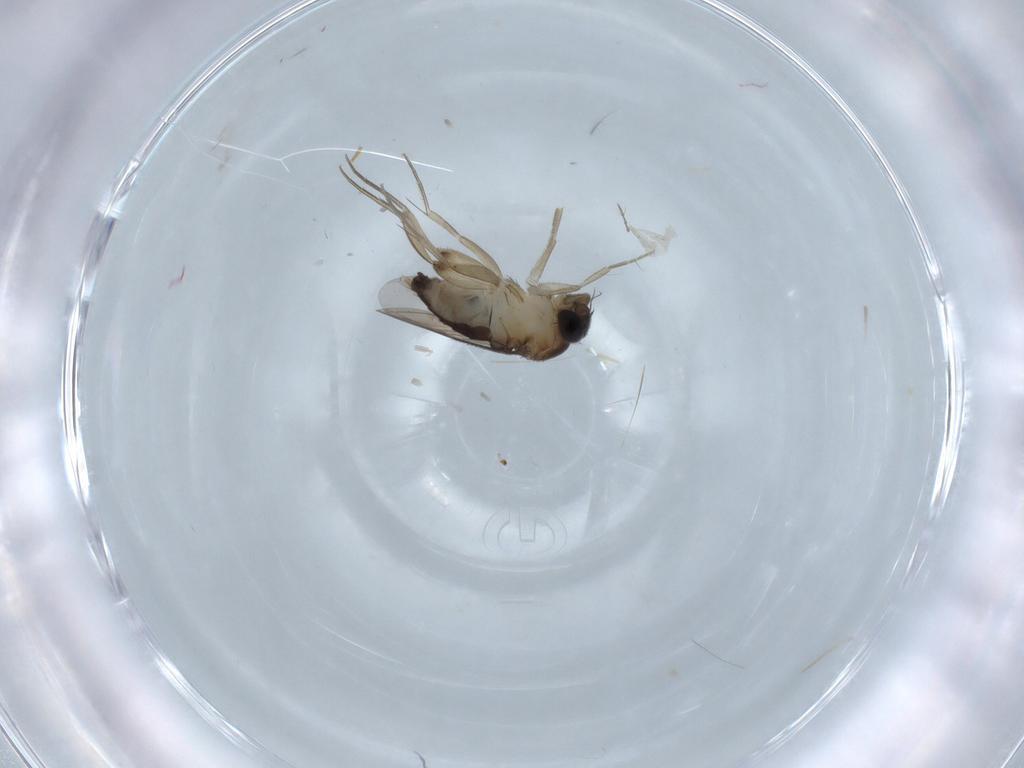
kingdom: Animalia
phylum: Arthropoda
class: Insecta
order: Diptera
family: Phoridae
